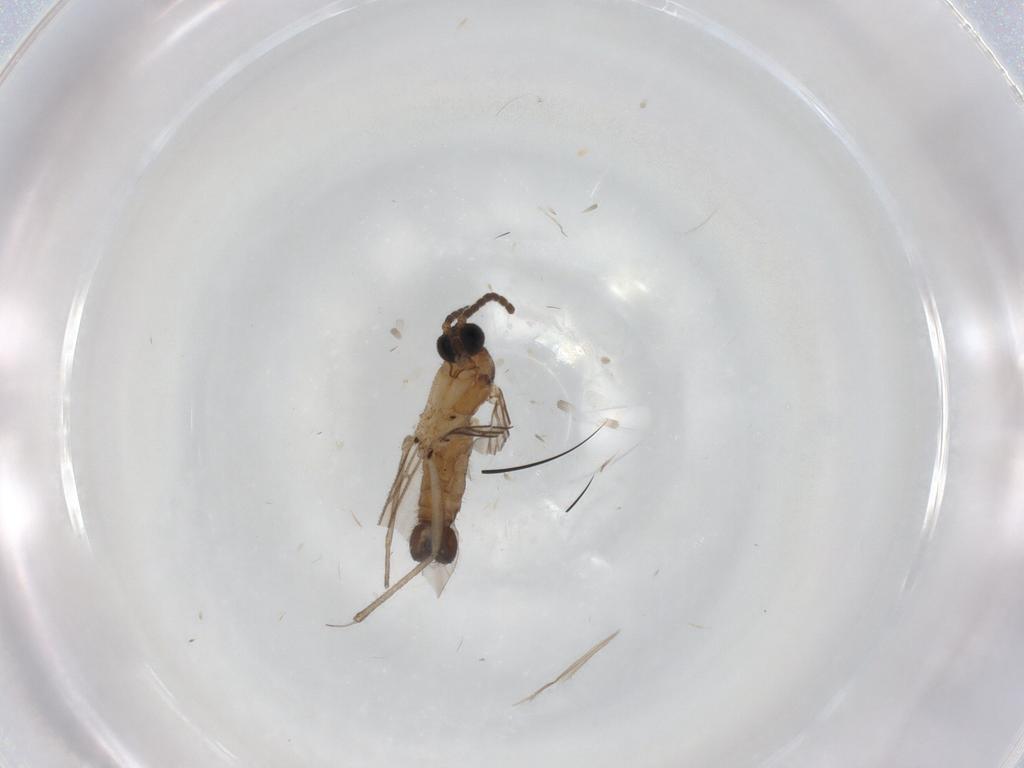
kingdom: Animalia
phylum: Arthropoda
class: Insecta
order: Diptera
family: Sciaridae
